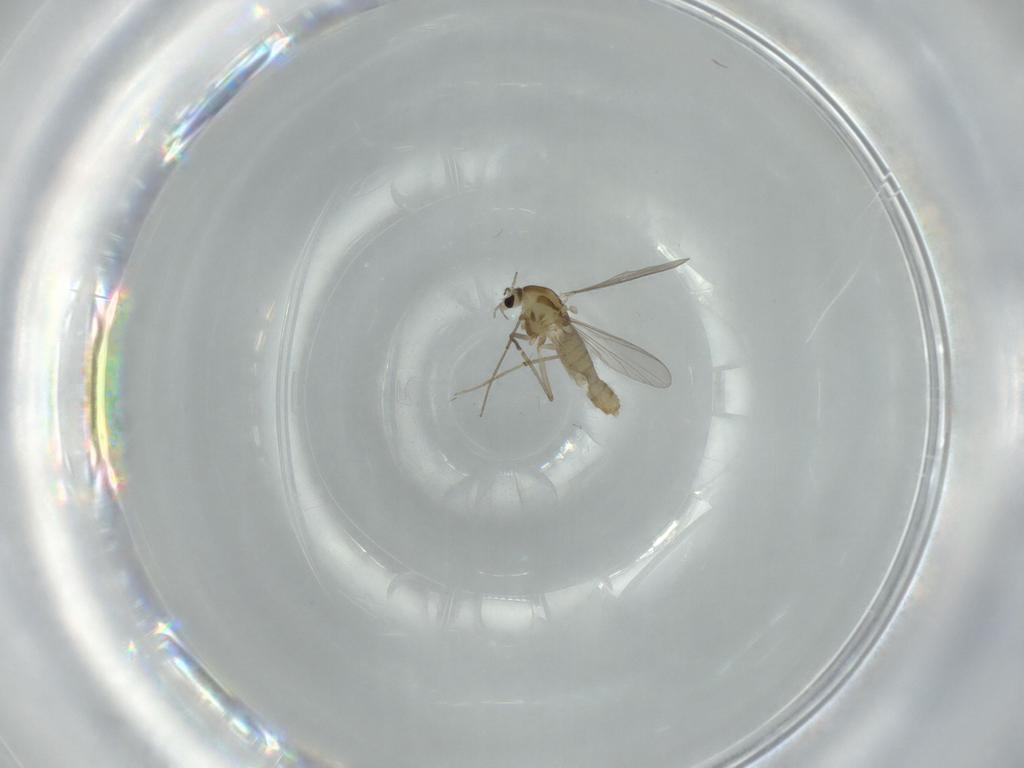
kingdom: Animalia
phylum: Arthropoda
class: Insecta
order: Diptera
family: Chironomidae
